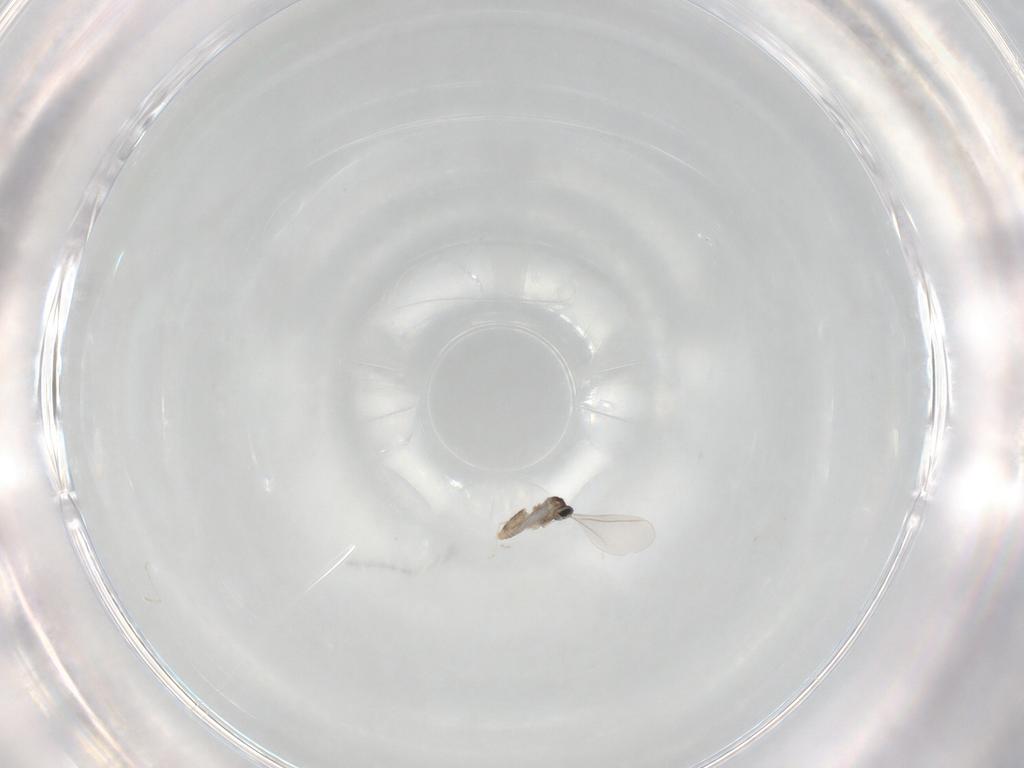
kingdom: Animalia
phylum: Arthropoda
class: Insecta
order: Diptera
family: Cecidomyiidae
